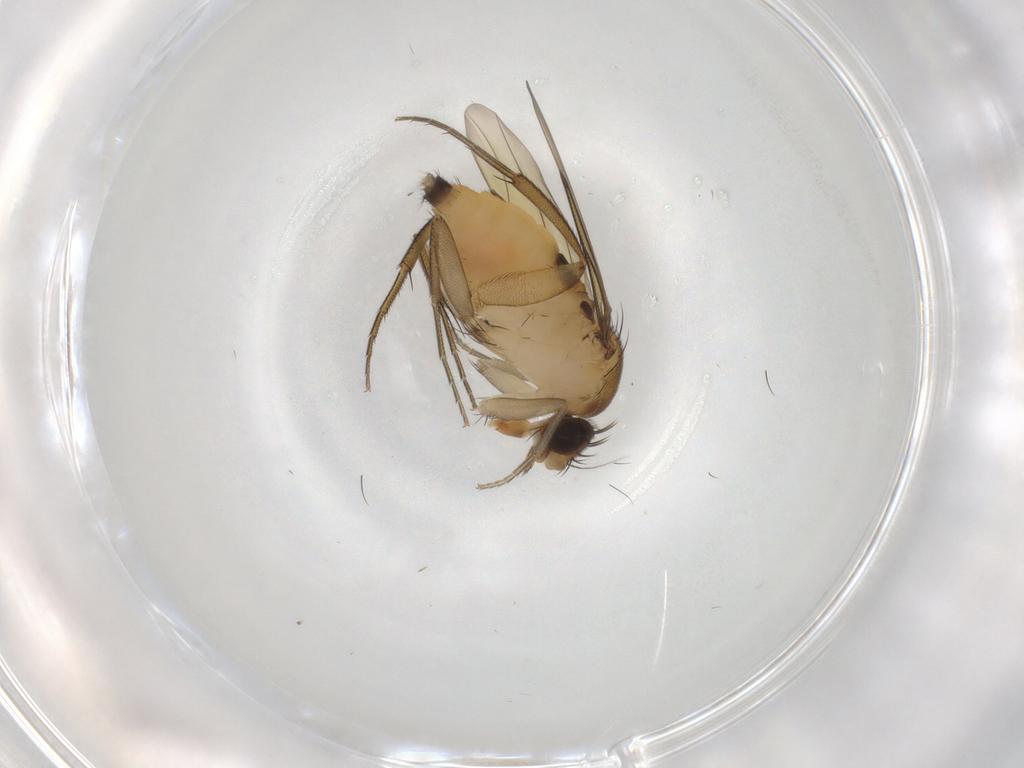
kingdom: Animalia
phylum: Arthropoda
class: Insecta
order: Diptera
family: Phoridae
